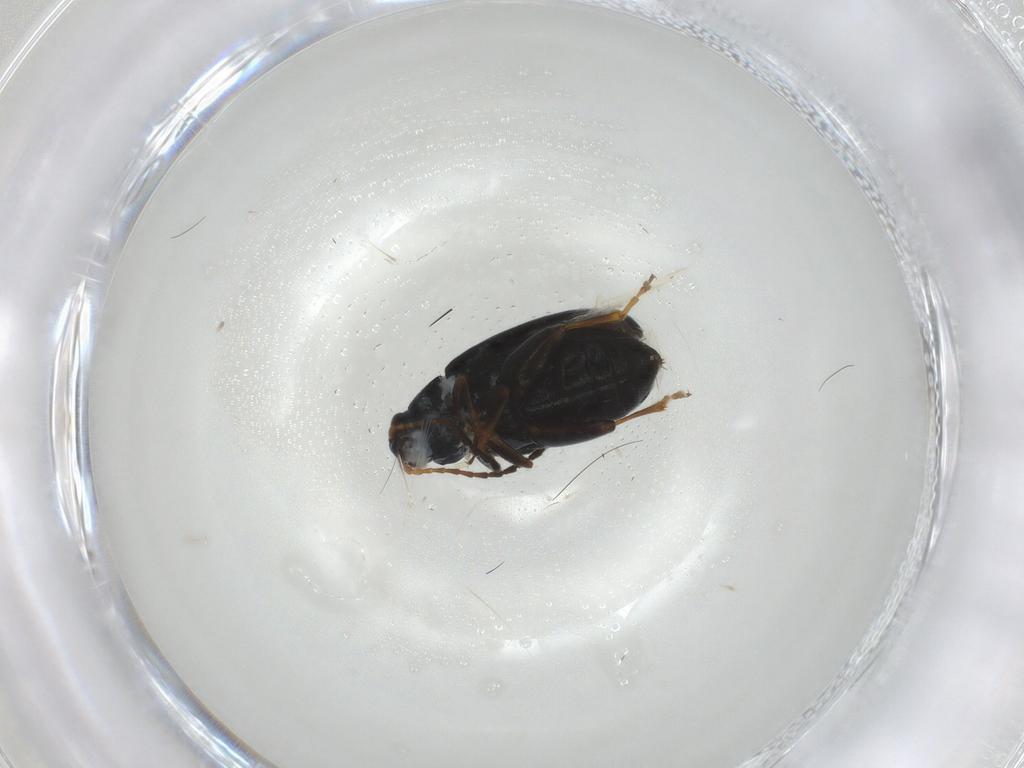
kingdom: Animalia
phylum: Arthropoda
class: Insecta
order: Coleoptera
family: Chrysomelidae
